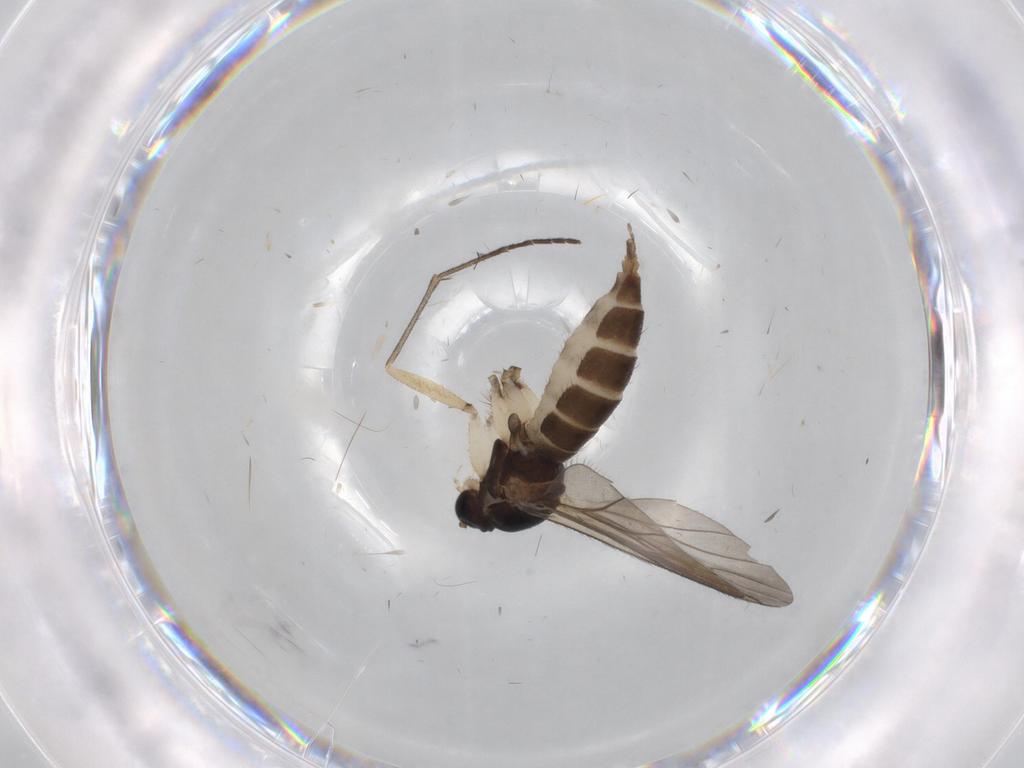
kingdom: Animalia
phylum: Arthropoda
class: Insecta
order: Diptera
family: Sciaridae
